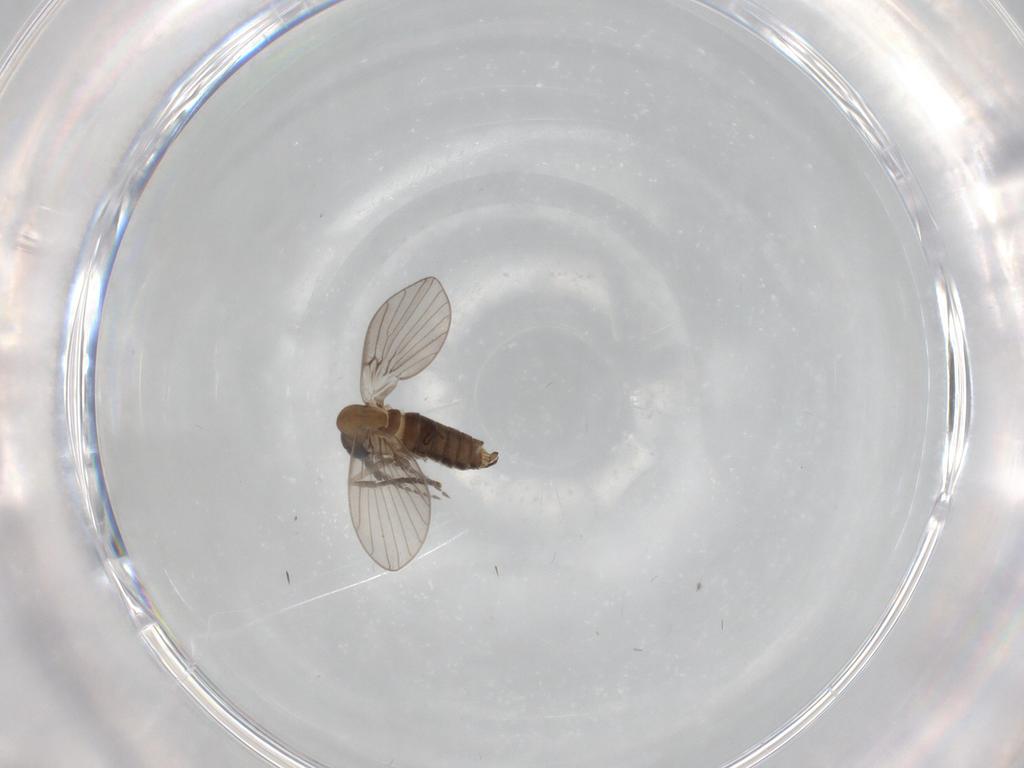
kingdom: Animalia
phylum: Arthropoda
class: Insecta
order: Diptera
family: Psychodidae
